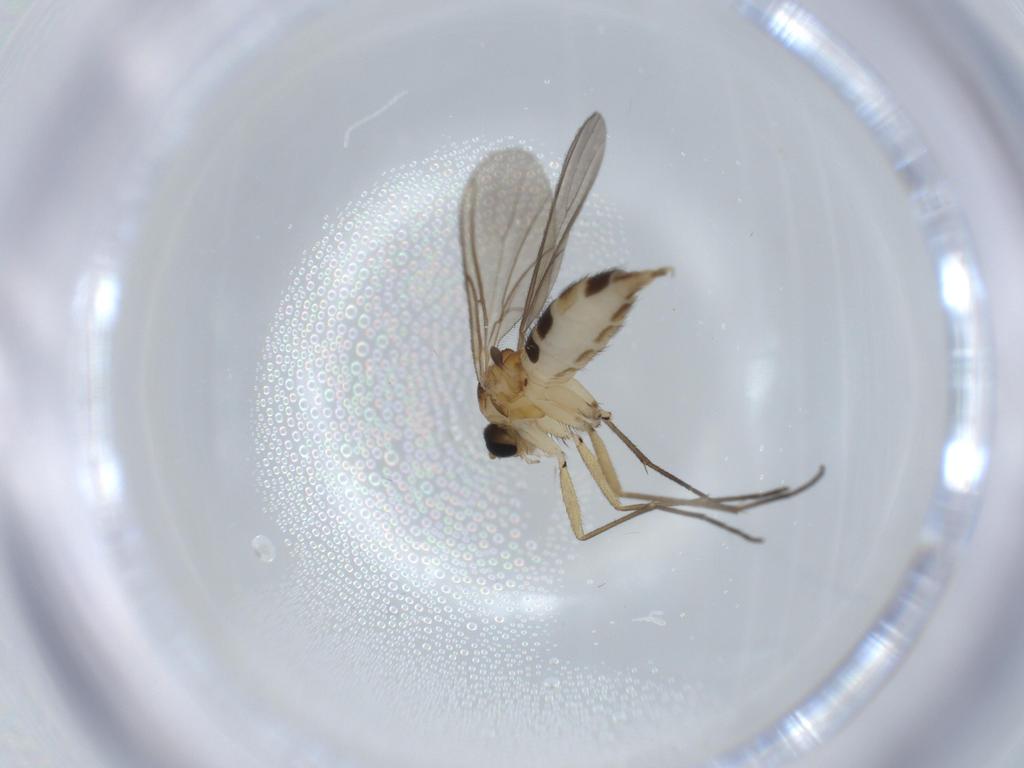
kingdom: Animalia
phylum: Arthropoda
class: Insecta
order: Diptera
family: Sciaridae
